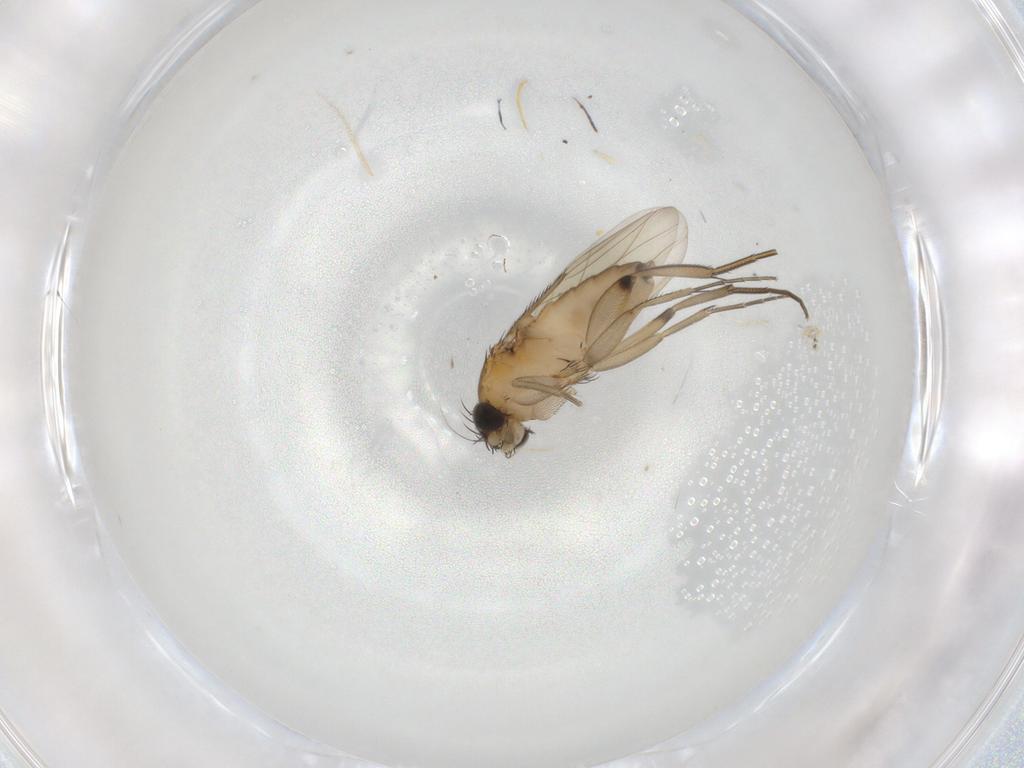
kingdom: Animalia
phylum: Arthropoda
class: Insecta
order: Diptera
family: Phoridae
